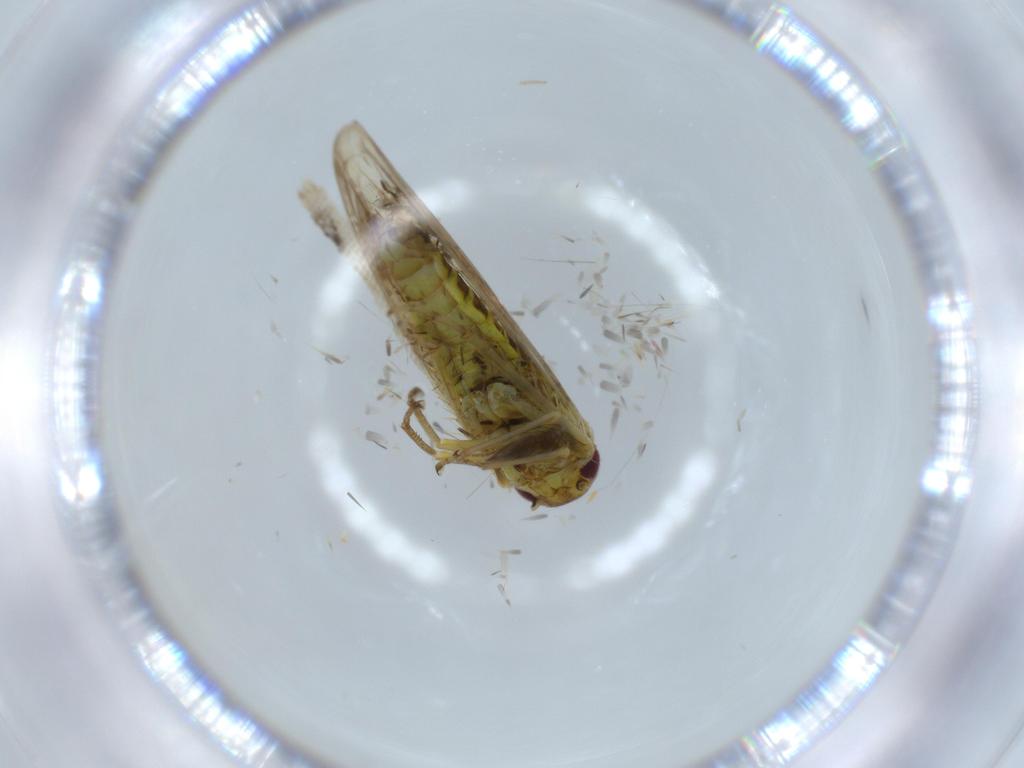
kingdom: Animalia
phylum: Arthropoda
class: Insecta
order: Hemiptera
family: Cicadellidae
